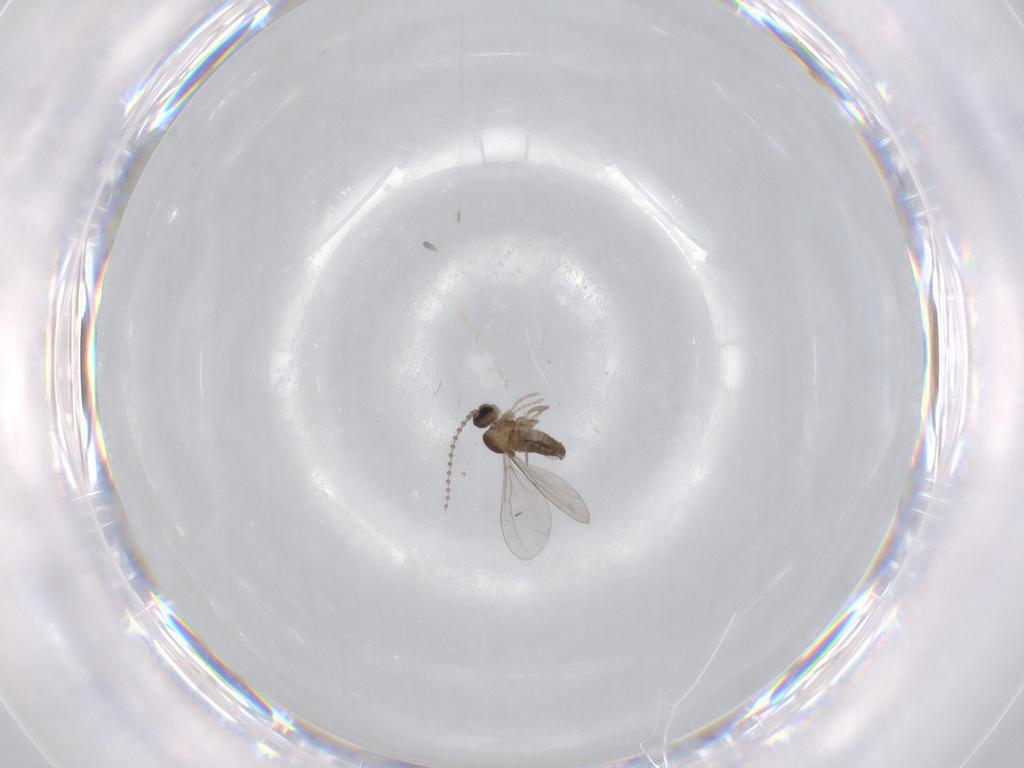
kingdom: Animalia
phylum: Arthropoda
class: Insecta
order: Diptera
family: Cecidomyiidae
